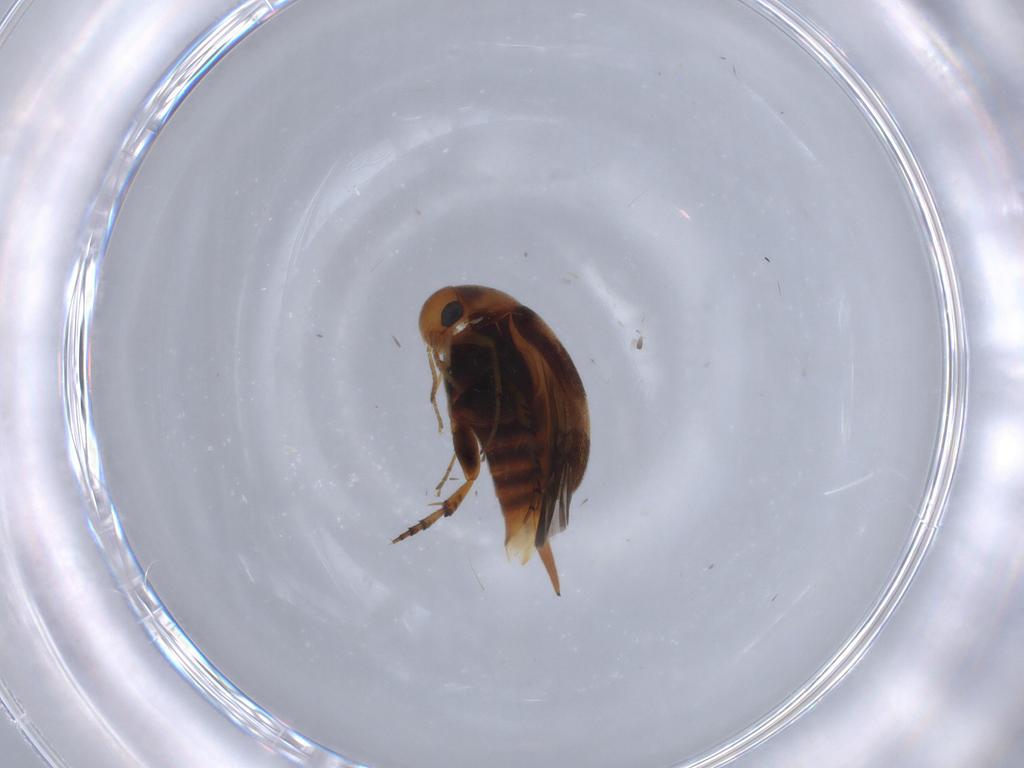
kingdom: Animalia
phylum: Arthropoda
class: Insecta
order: Coleoptera
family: Mordellidae
